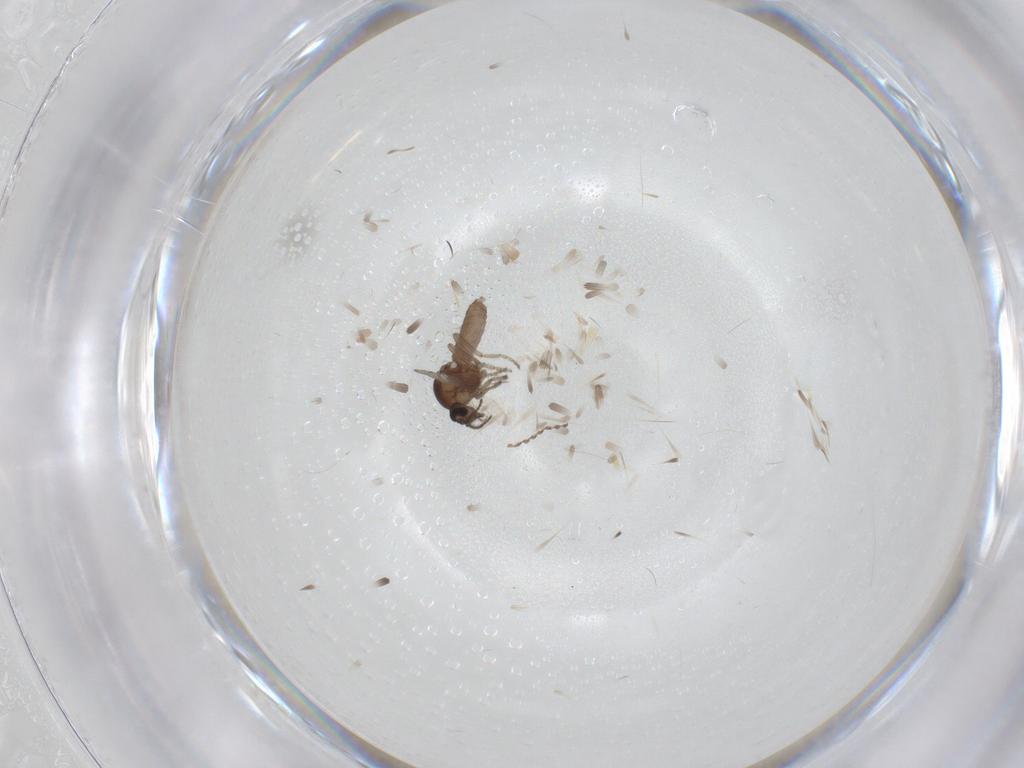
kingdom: Animalia
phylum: Arthropoda
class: Insecta
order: Diptera
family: Ceratopogonidae
